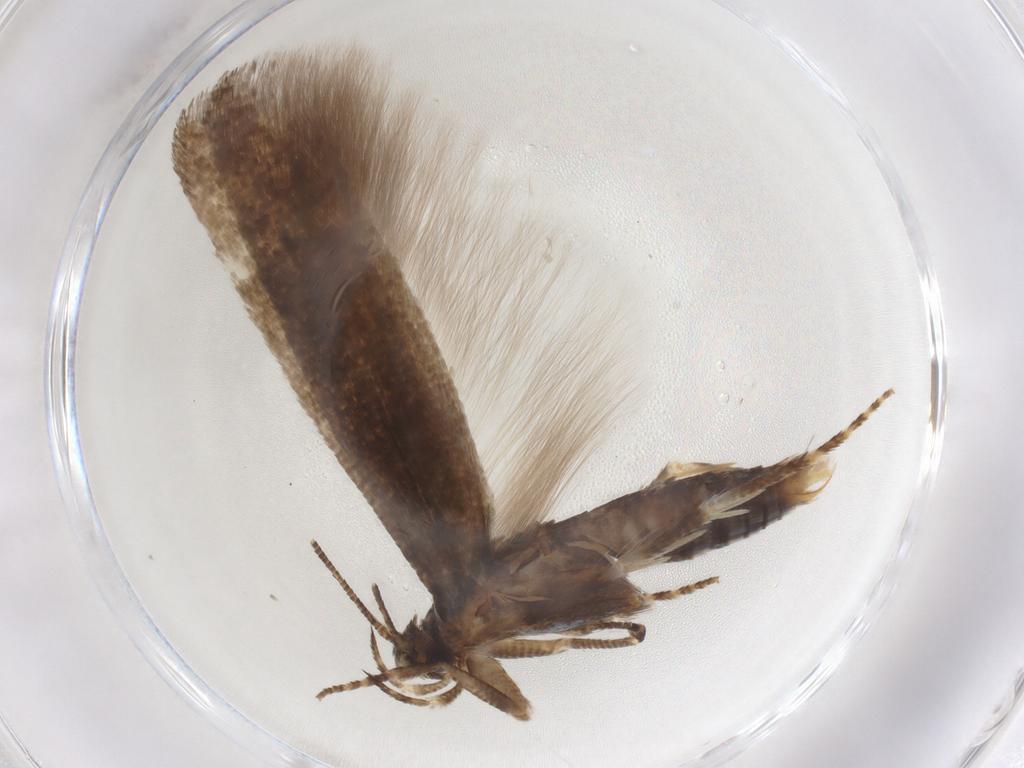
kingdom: Animalia
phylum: Arthropoda
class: Insecta
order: Lepidoptera
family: Momphidae
